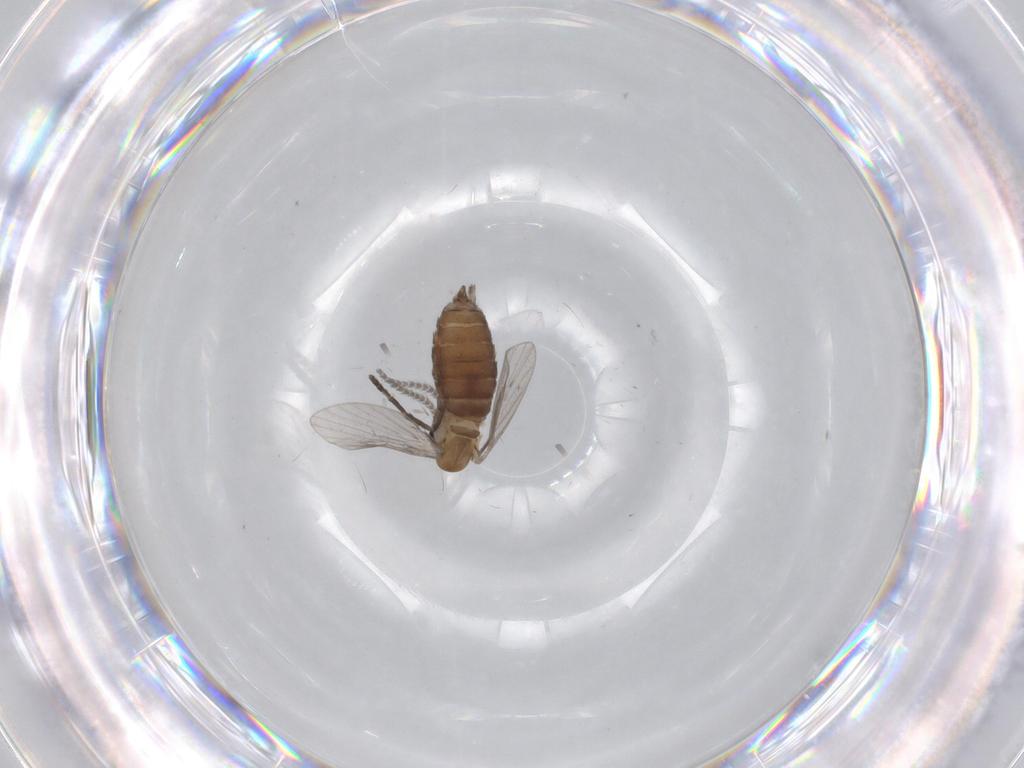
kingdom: Animalia
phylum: Arthropoda
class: Insecta
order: Diptera
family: Psychodidae
